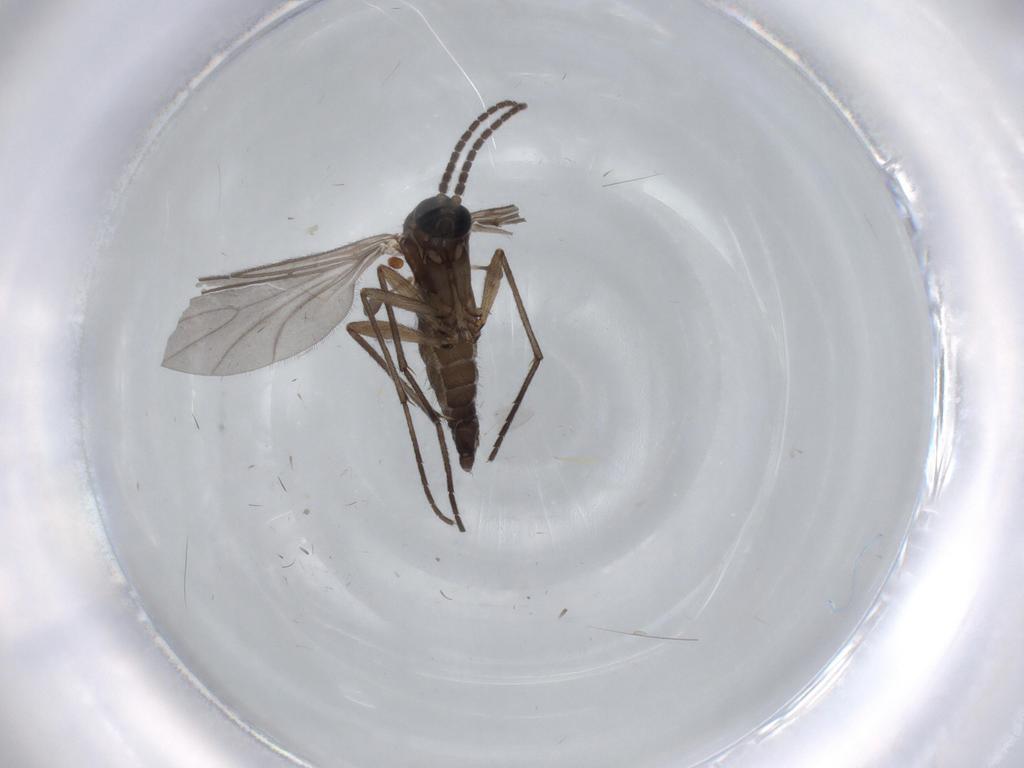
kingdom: Animalia
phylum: Arthropoda
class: Insecta
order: Diptera
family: Sciaridae
